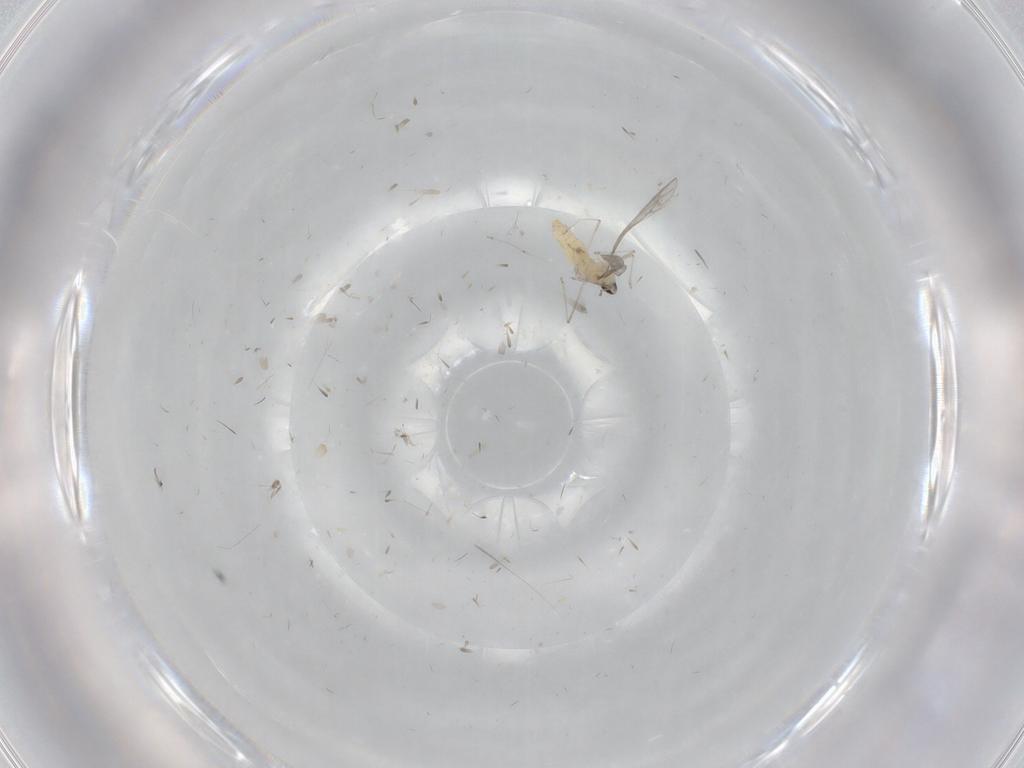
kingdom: Animalia
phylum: Arthropoda
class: Insecta
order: Diptera
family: Cecidomyiidae
